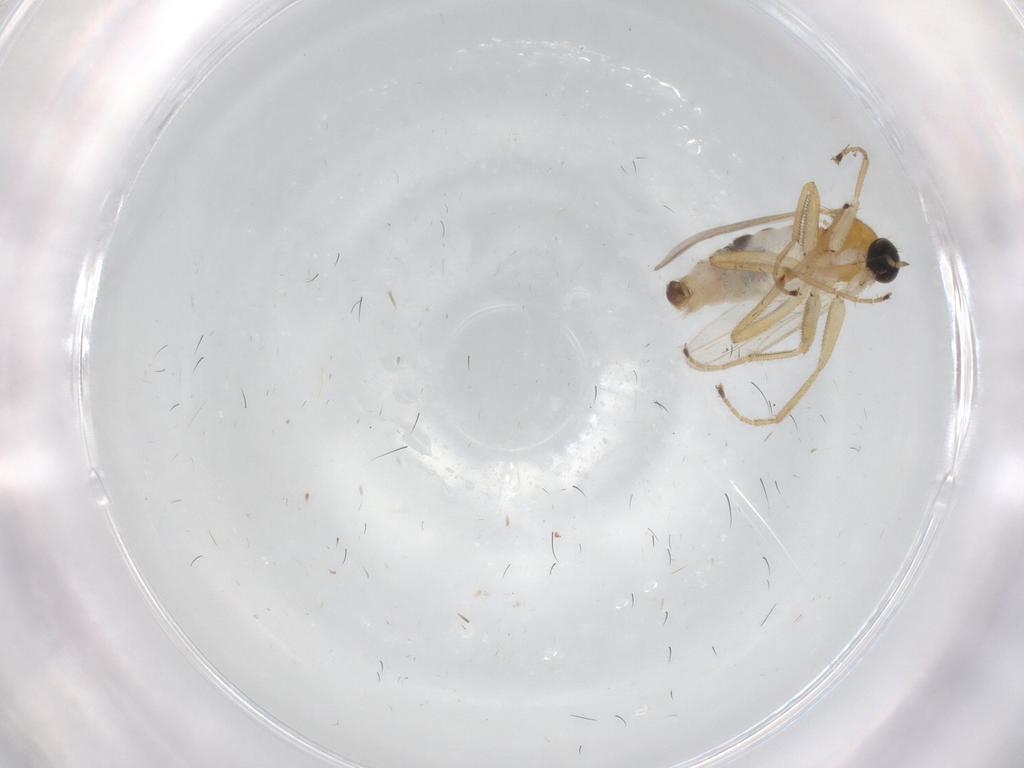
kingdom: Animalia
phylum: Arthropoda
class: Insecta
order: Diptera
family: Hybotidae
